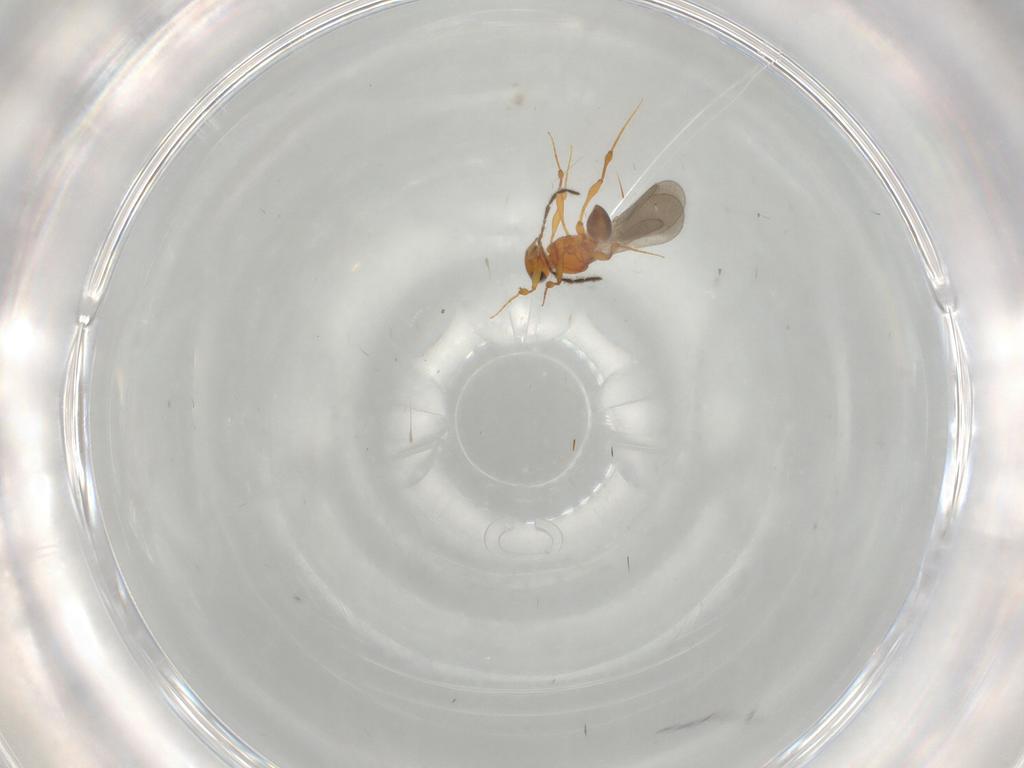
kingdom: Animalia
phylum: Arthropoda
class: Insecta
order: Hymenoptera
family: Platygastridae
